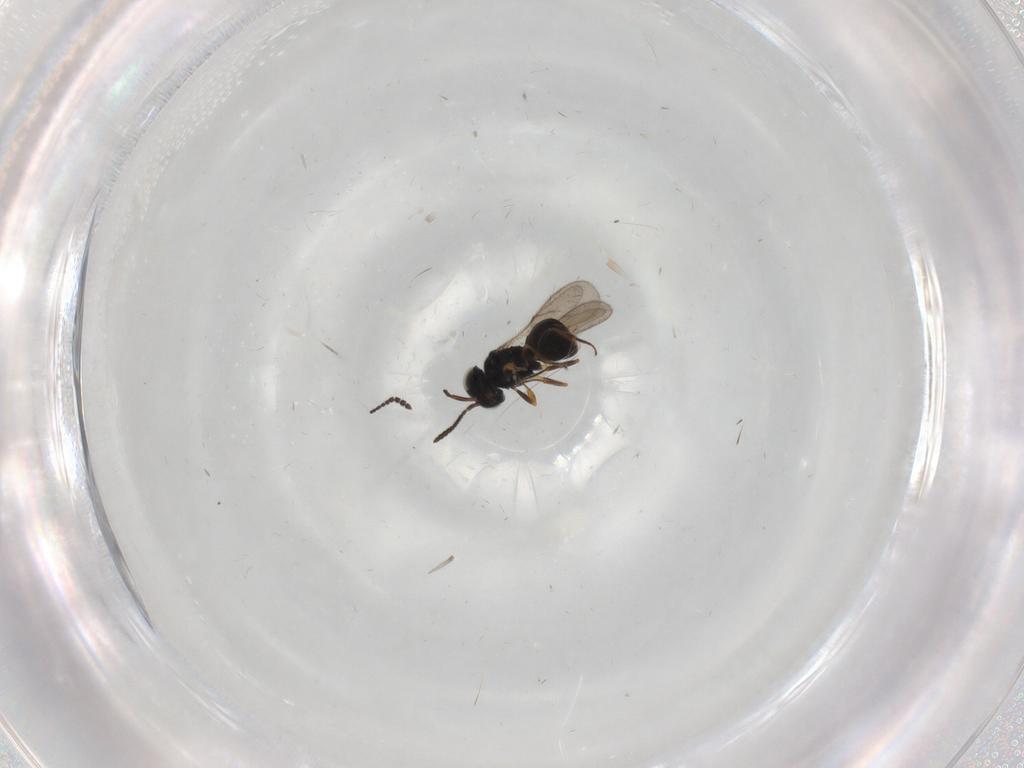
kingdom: Animalia
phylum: Arthropoda
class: Insecta
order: Hymenoptera
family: Scelionidae
